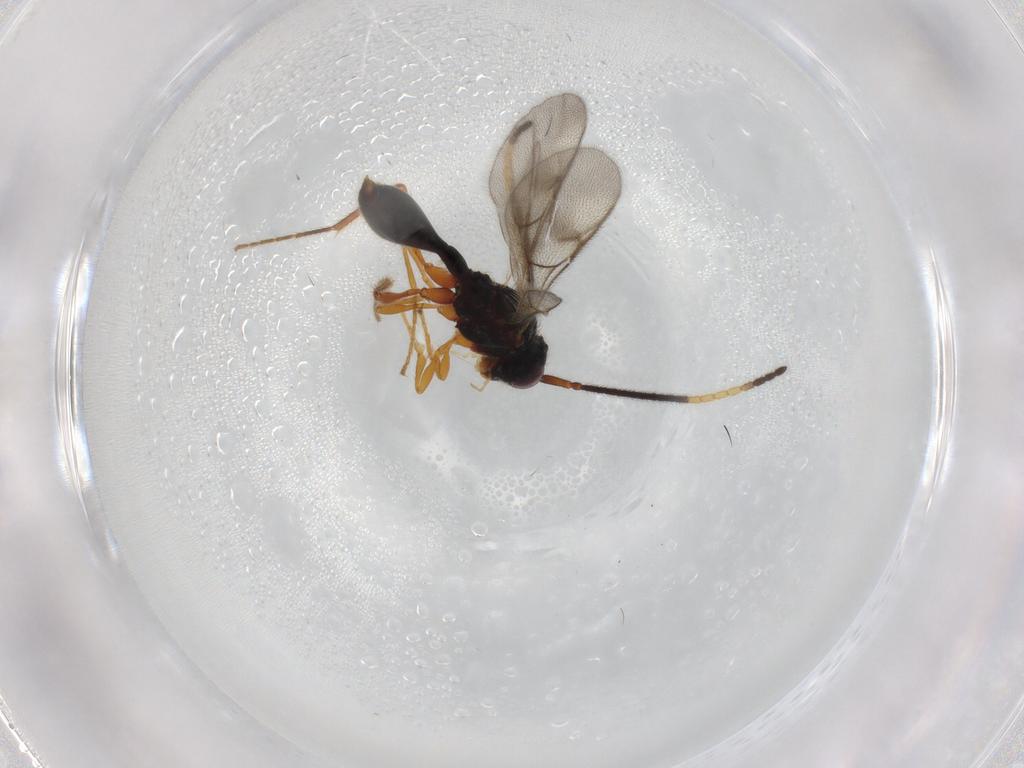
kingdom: Animalia
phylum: Arthropoda
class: Insecta
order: Hymenoptera
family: Diapriidae
